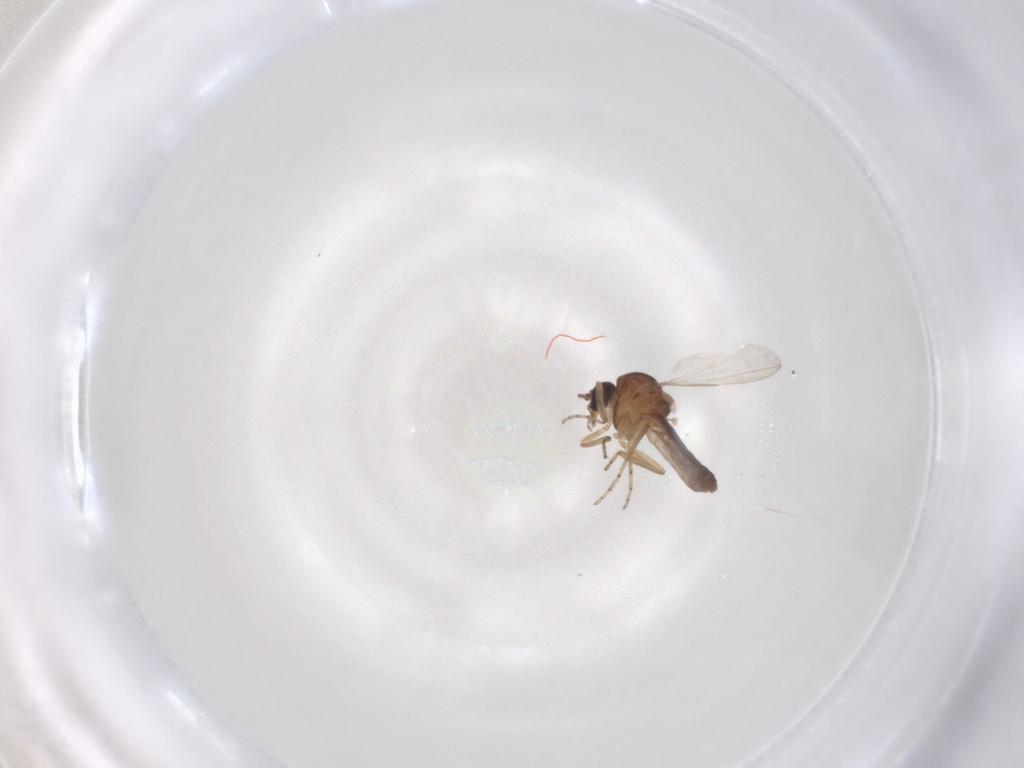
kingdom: Animalia
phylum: Arthropoda
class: Insecta
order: Diptera
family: Ceratopogonidae
